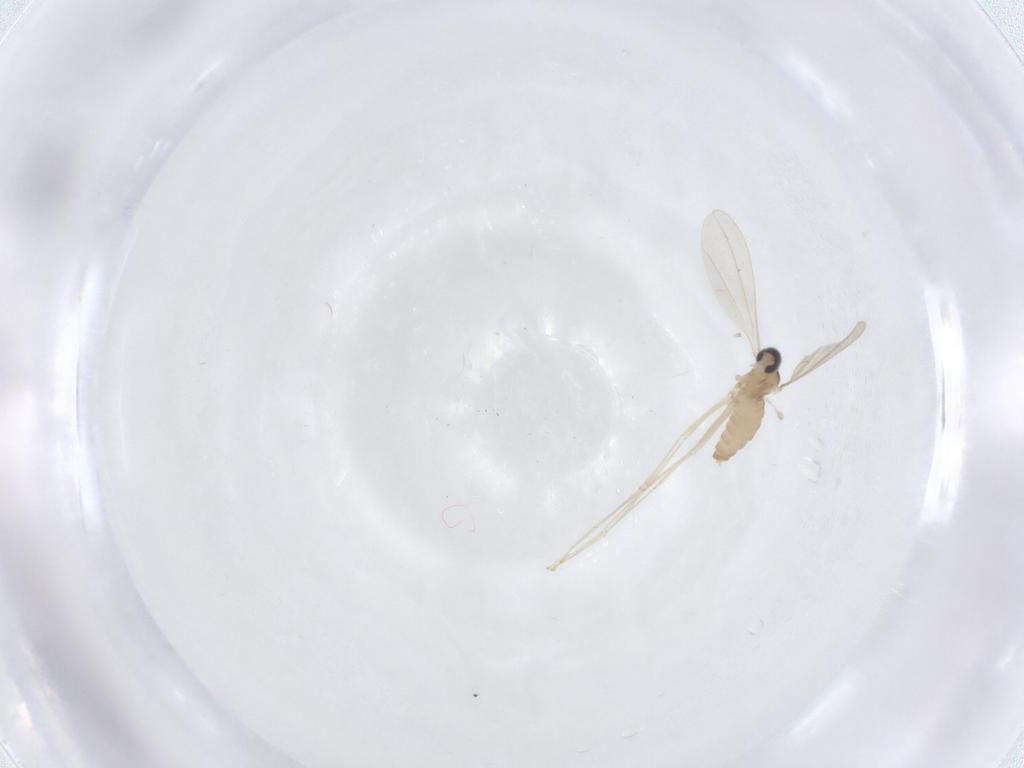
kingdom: Animalia
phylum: Arthropoda
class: Insecta
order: Diptera
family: Cecidomyiidae
